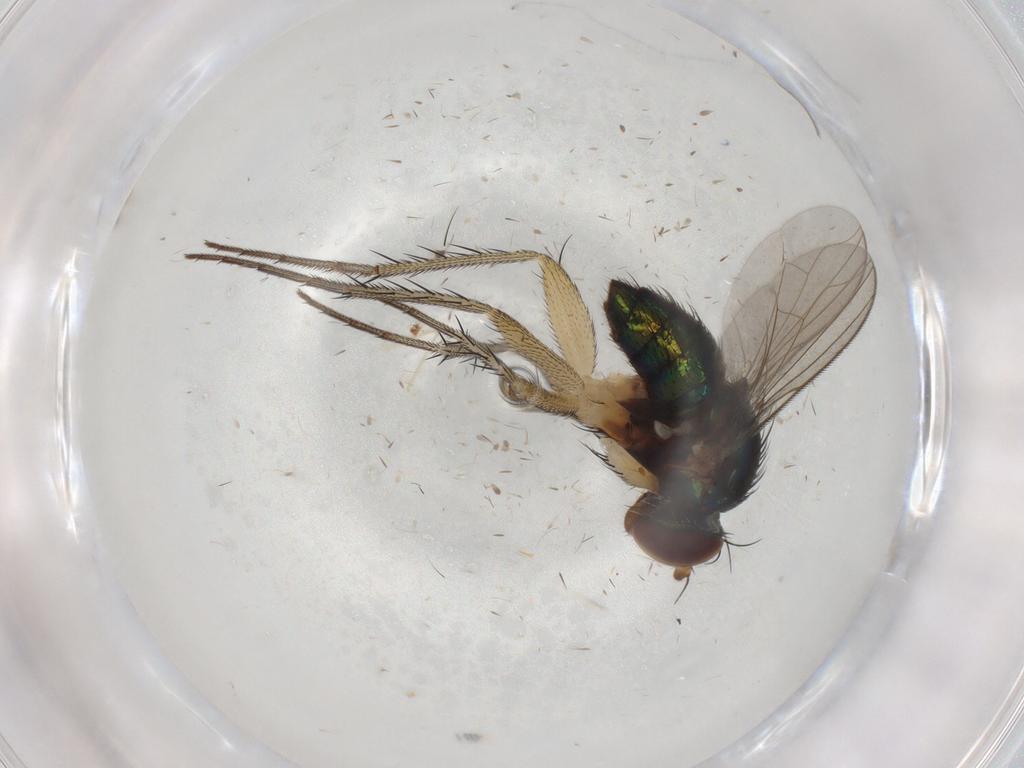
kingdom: Animalia
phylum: Arthropoda
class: Insecta
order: Diptera
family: Dolichopodidae
